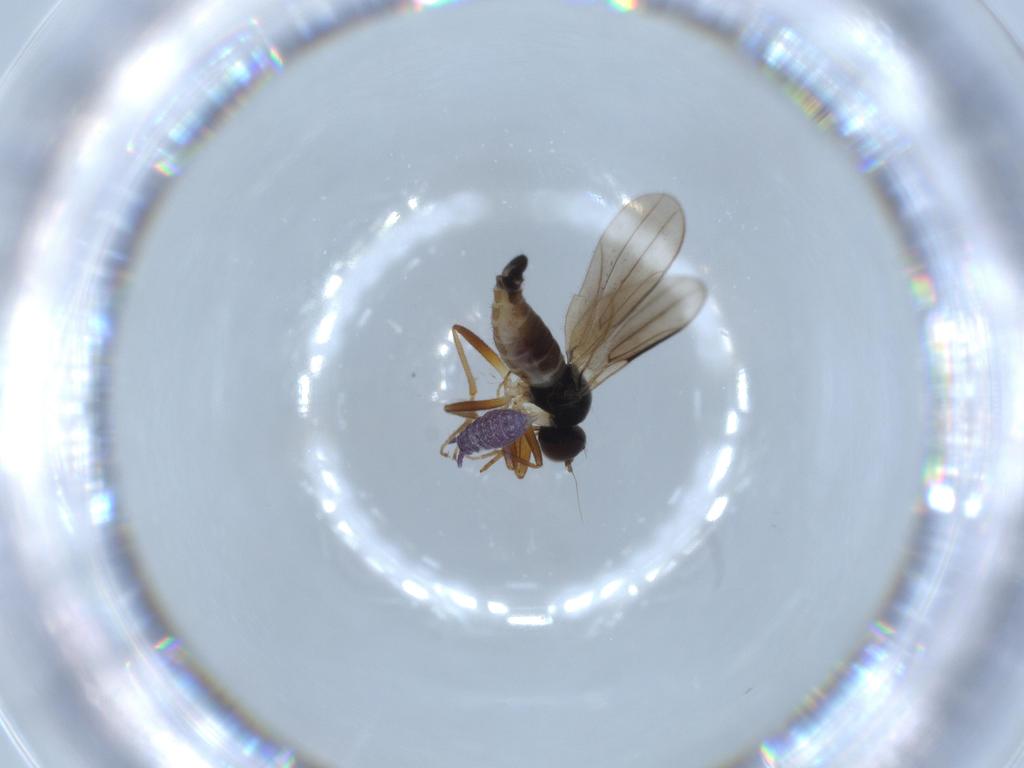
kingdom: Animalia
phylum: Arthropoda
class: Insecta
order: Diptera
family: Hybotidae
